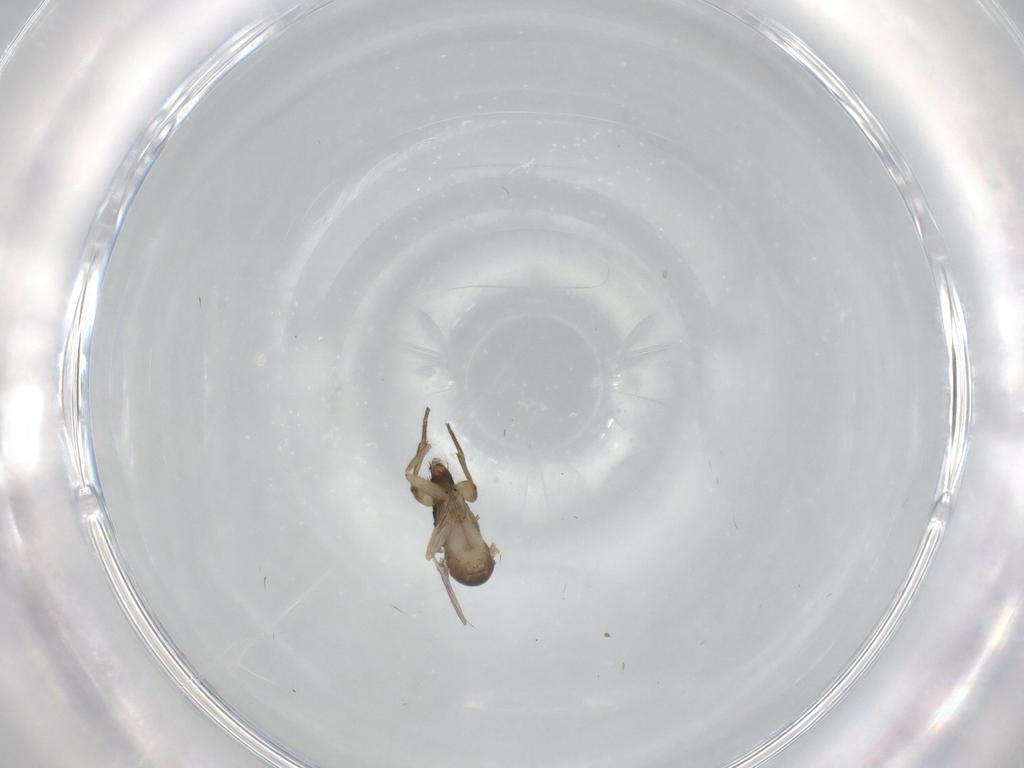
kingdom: Animalia
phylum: Arthropoda
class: Insecta
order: Diptera
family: Phoridae
